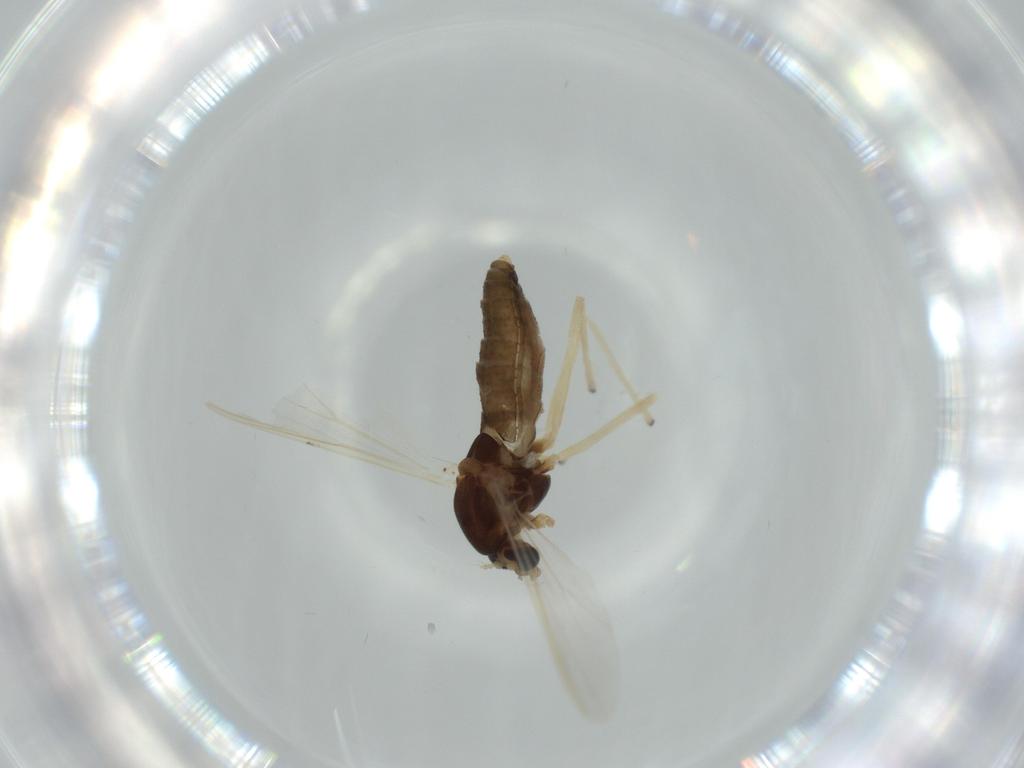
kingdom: Animalia
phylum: Arthropoda
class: Insecta
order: Diptera
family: Chironomidae
